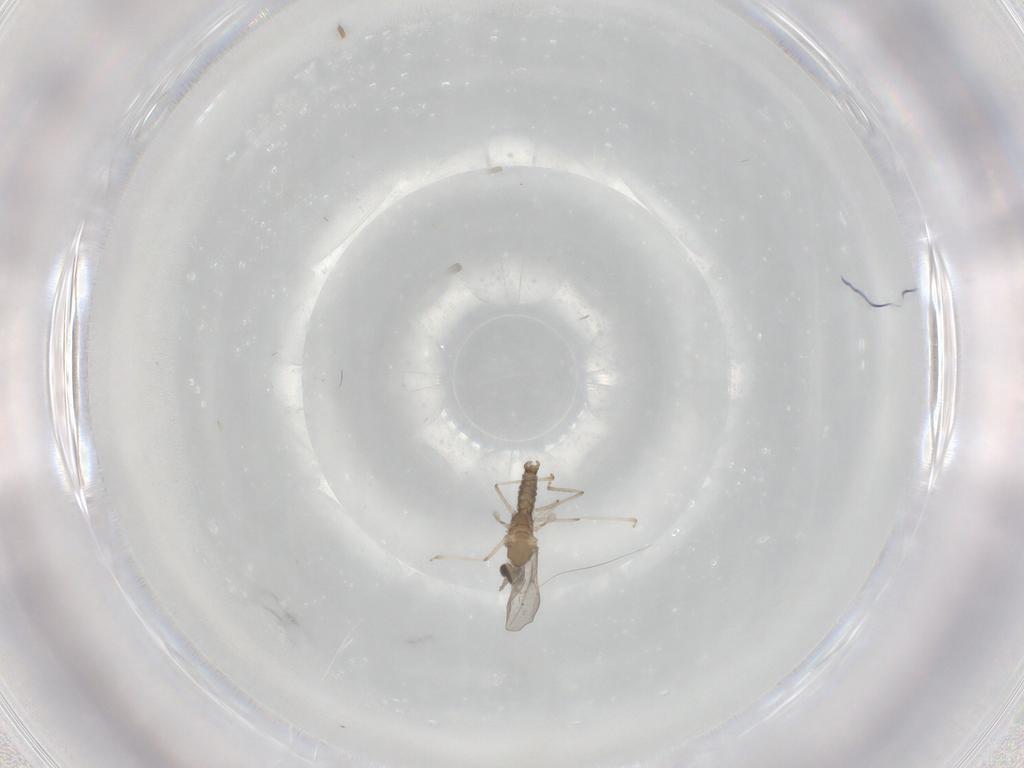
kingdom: Animalia
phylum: Arthropoda
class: Insecta
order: Diptera
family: Cecidomyiidae
